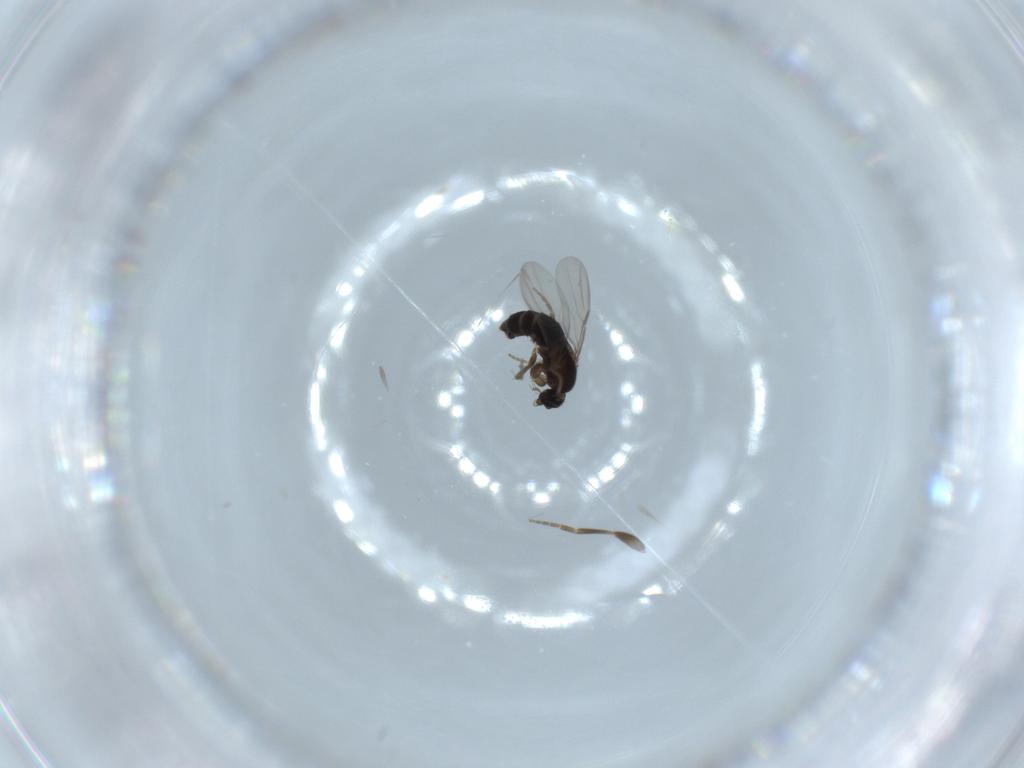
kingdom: Animalia
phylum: Arthropoda
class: Insecta
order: Diptera
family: Phoridae
